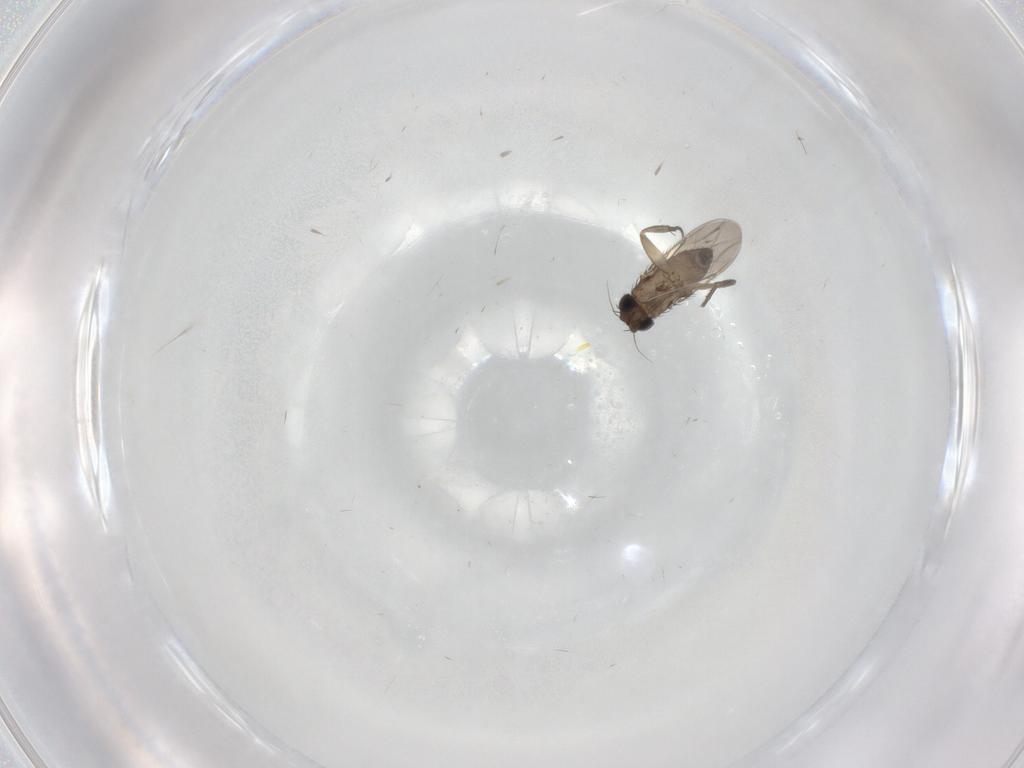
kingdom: Animalia
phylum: Arthropoda
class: Insecta
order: Diptera
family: Phoridae
